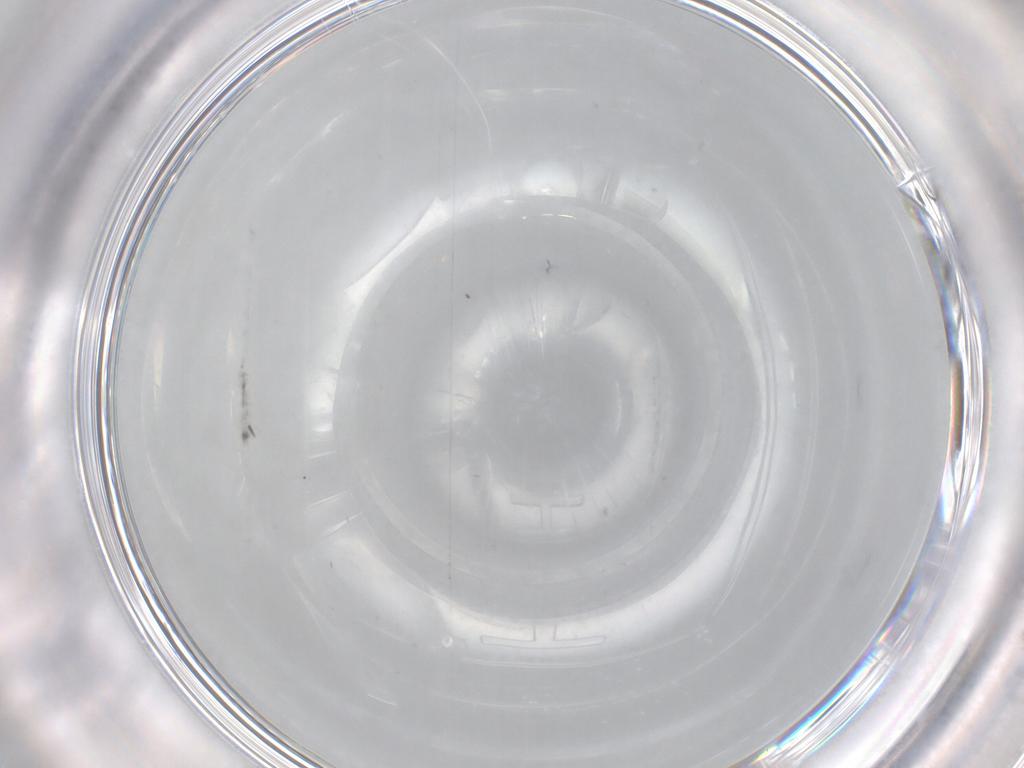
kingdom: Animalia
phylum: Arthropoda
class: Insecta
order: Diptera
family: Cecidomyiidae
